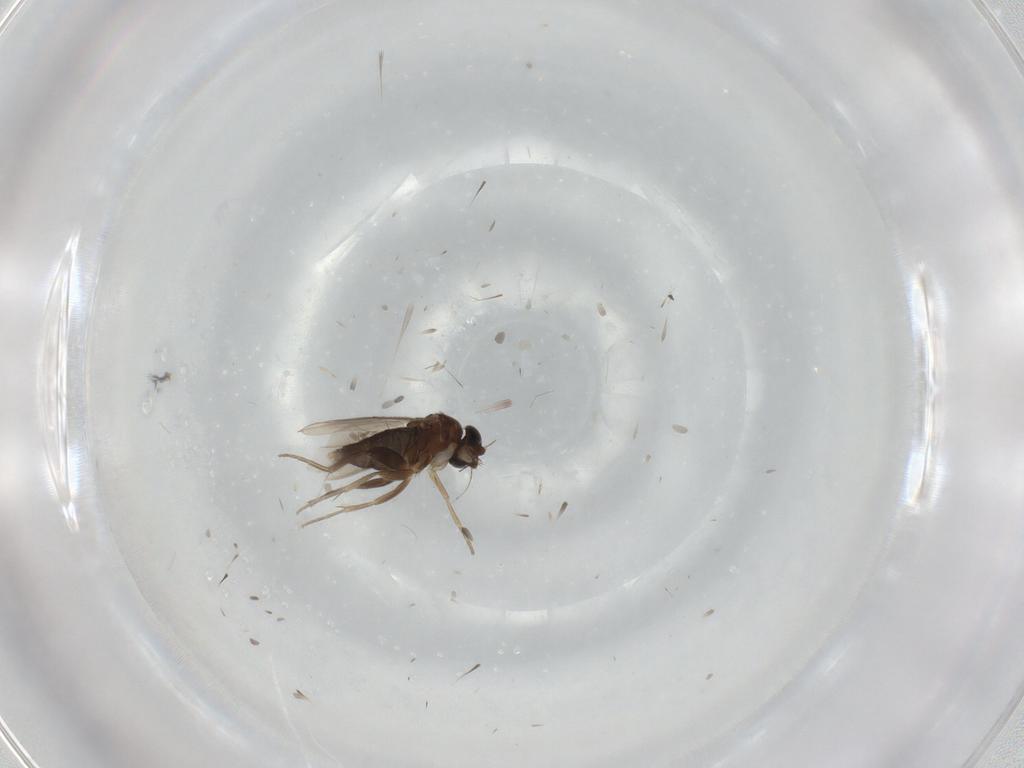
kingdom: Animalia
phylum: Arthropoda
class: Insecta
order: Diptera
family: Phoridae
